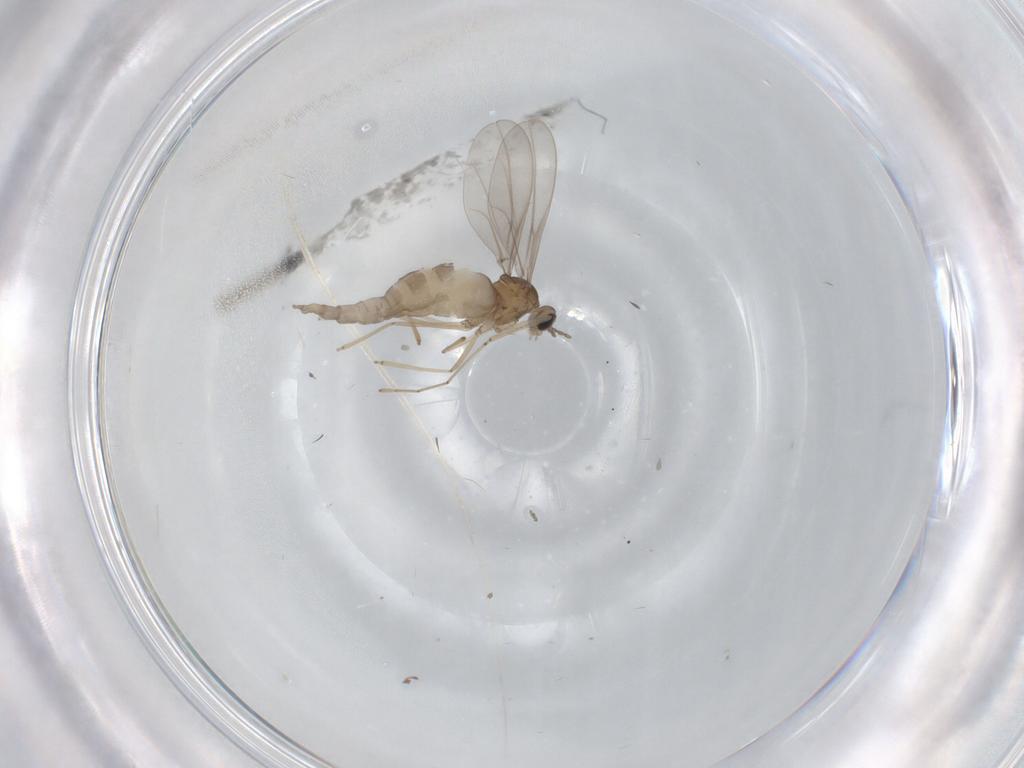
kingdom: Animalia
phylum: Arthropoda
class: Insecta
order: Diptera
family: Cecidomyiidae
